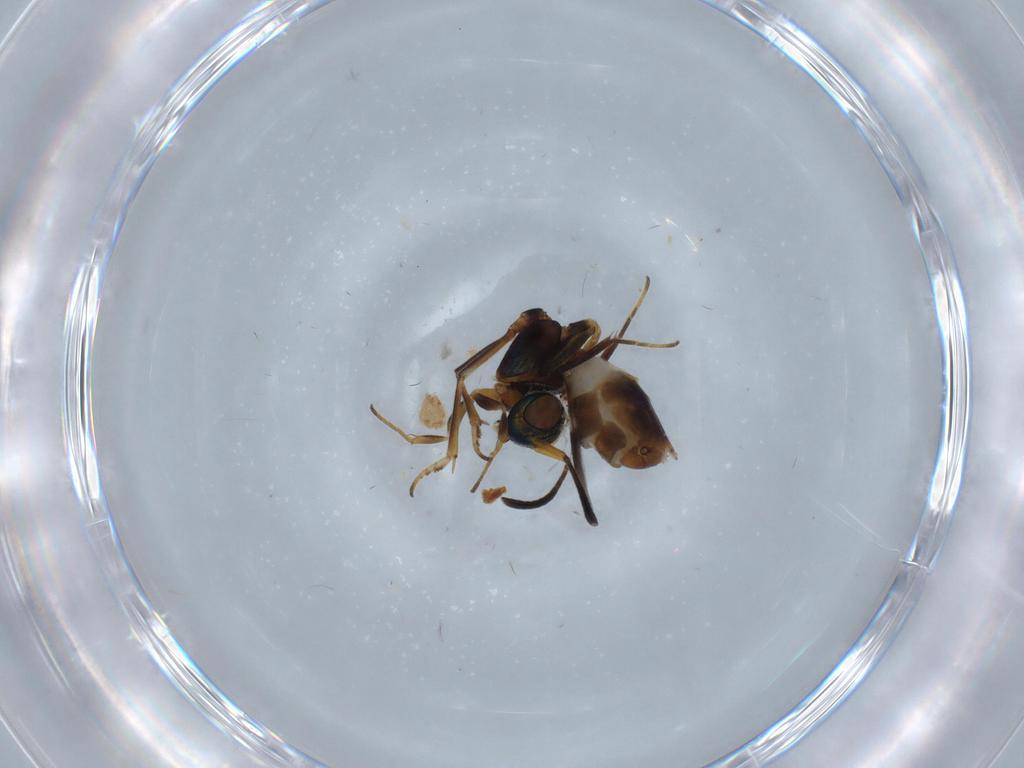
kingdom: Animalia
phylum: Arthropoda
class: Insecta
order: Hymenoptera
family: Eupelmidae
